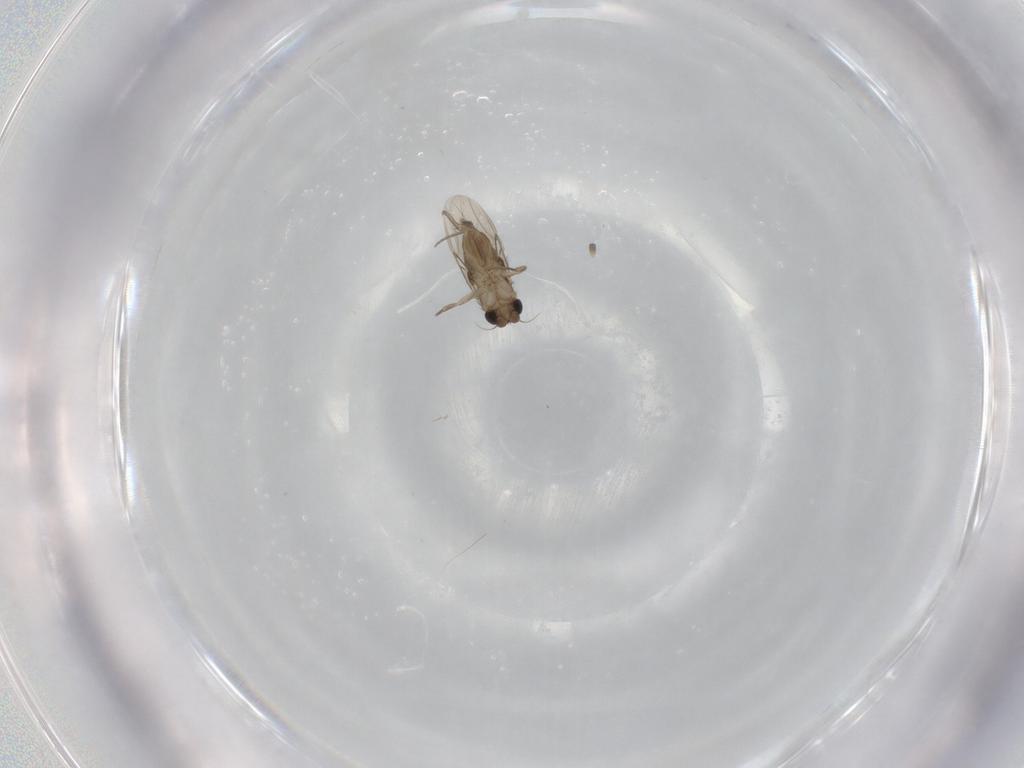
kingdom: Animalia
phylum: Arthropoda
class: Insecta
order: Diptera
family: Phoridae
